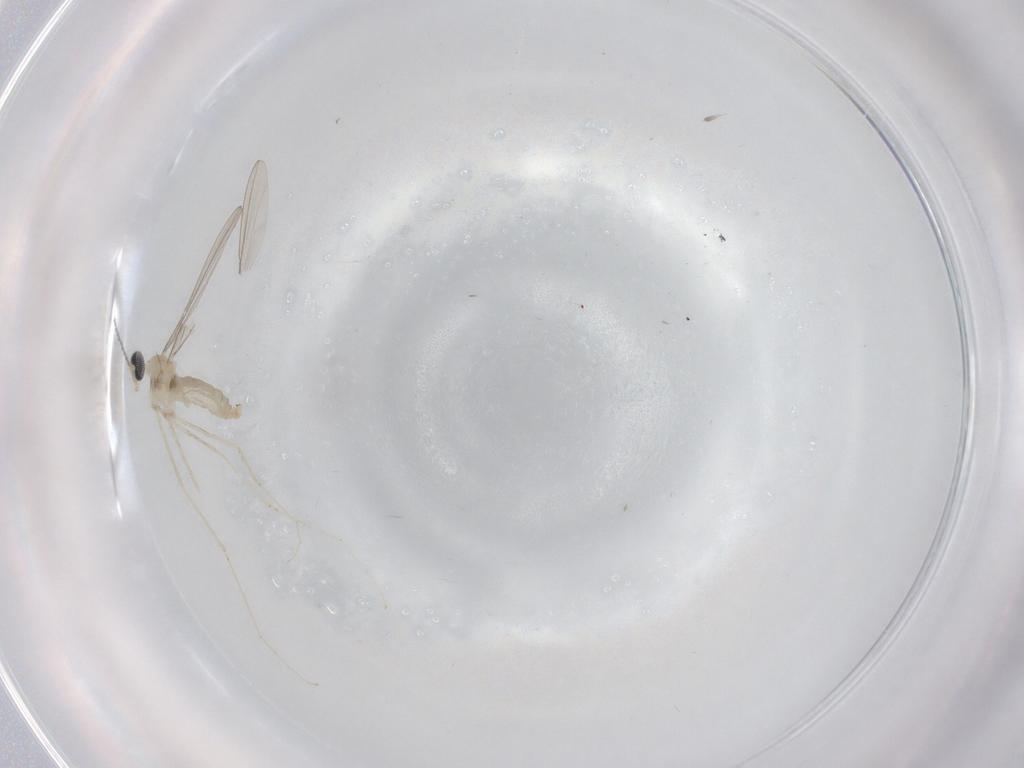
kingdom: Animalia
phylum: Arthropoda
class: Insecta
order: Diptera
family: Cecidomyiidae
